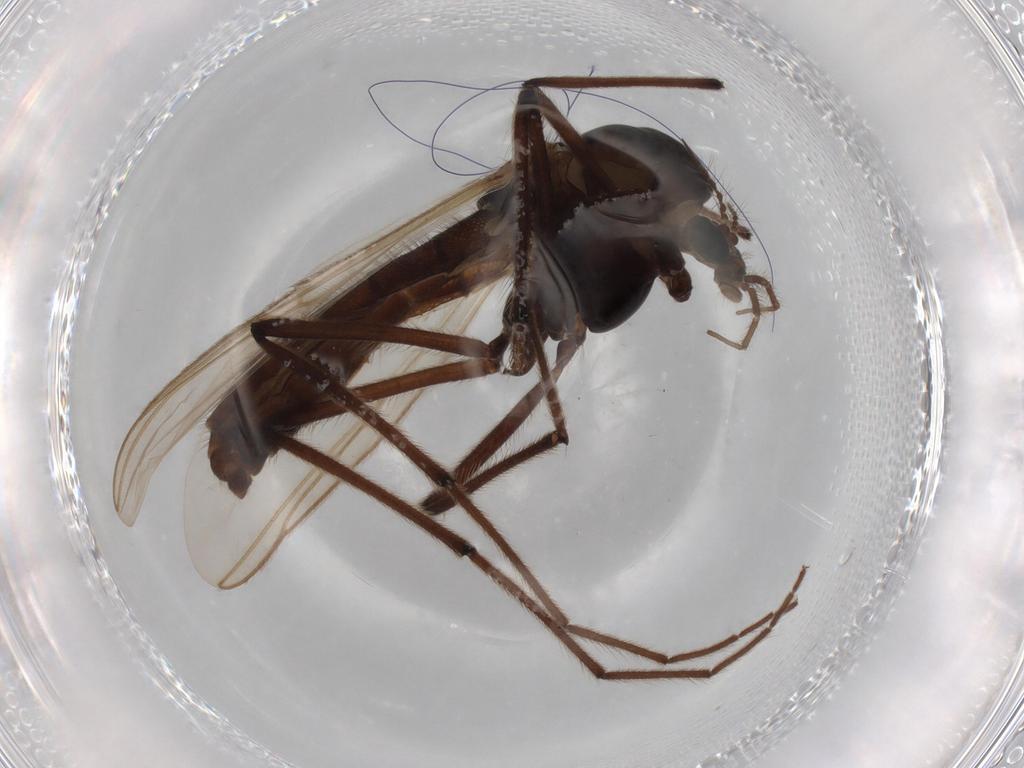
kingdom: Animalia
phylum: Arthropoda
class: Insecta
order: Diptera
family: Chironomidae
